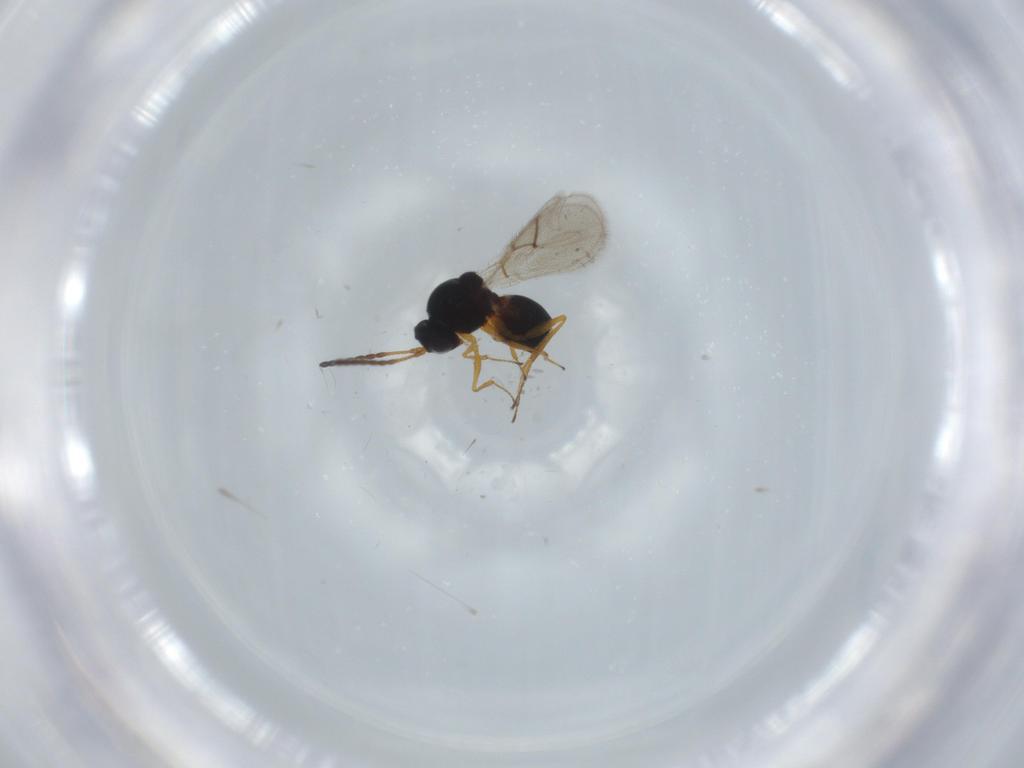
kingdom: Animalia
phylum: Arthropoda
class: Insecta
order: Hymenoptera
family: Figitidae
